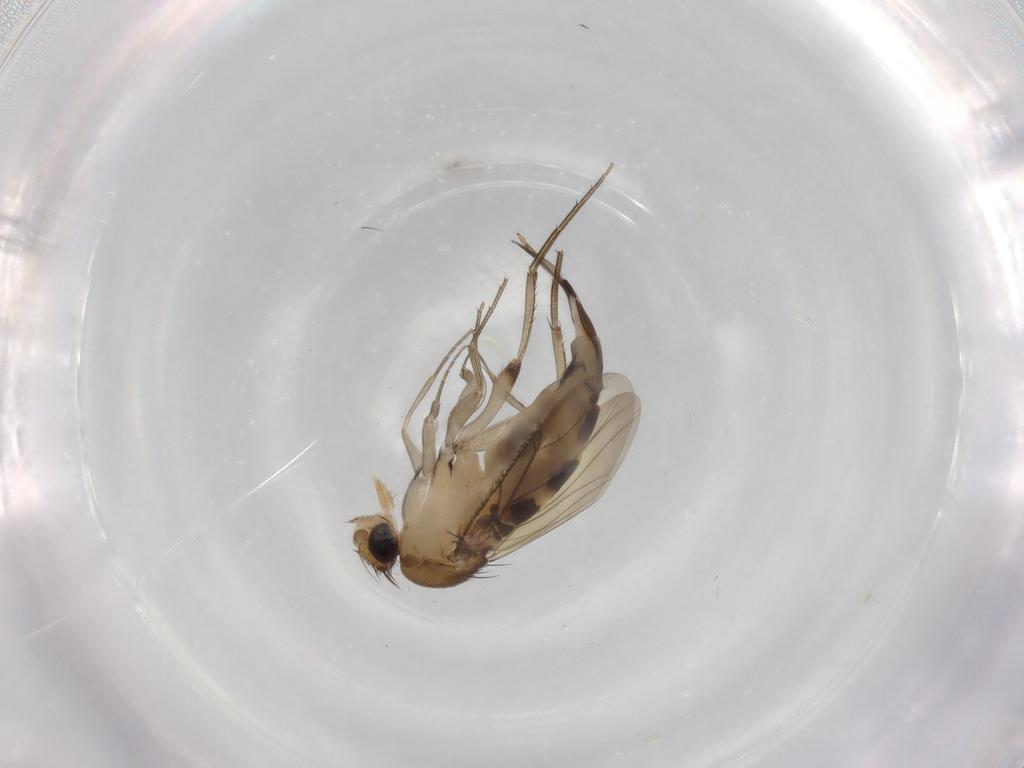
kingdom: Animalia
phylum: Arthropoda
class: Insecta
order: Diptera
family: Phoridae
